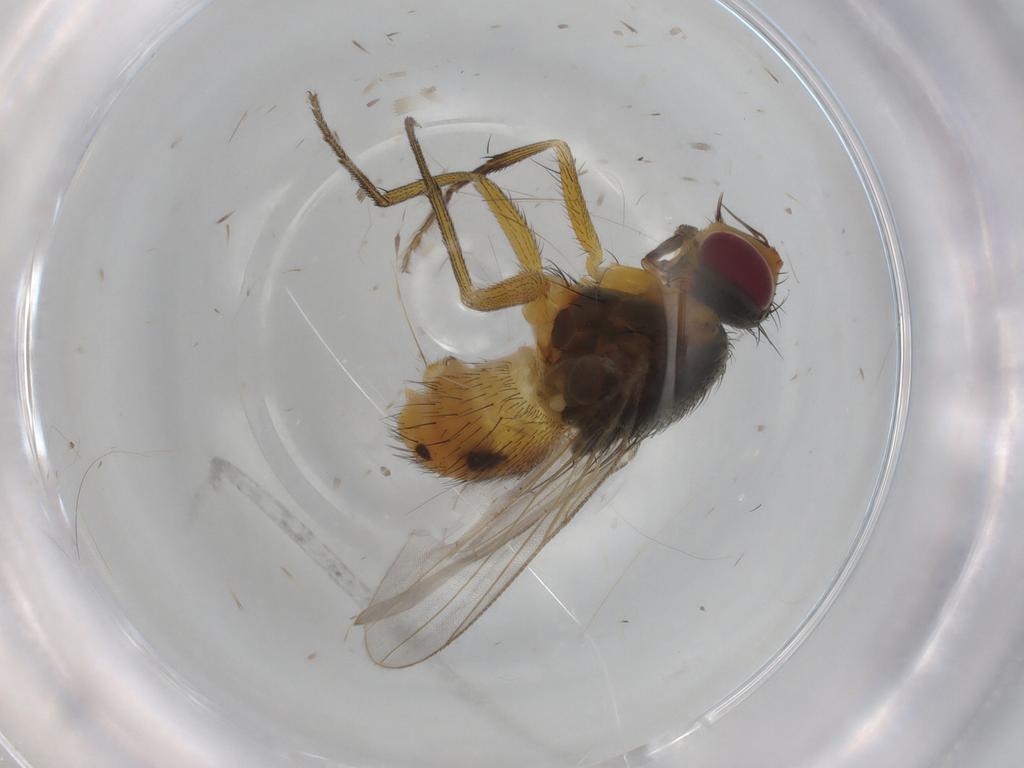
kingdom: Animalia
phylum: Arthropoda
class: Insecta
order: Diptera
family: Muscidae
